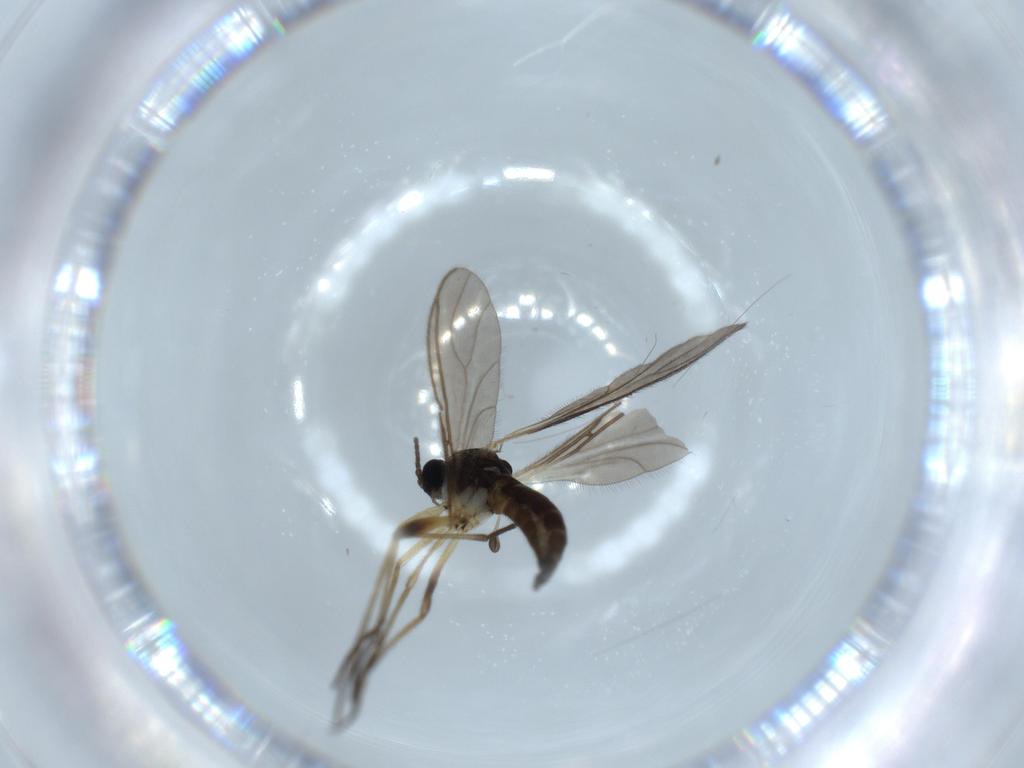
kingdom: Animalia
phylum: Arthropoda
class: Insecta
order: Diptera
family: Sciaridae
